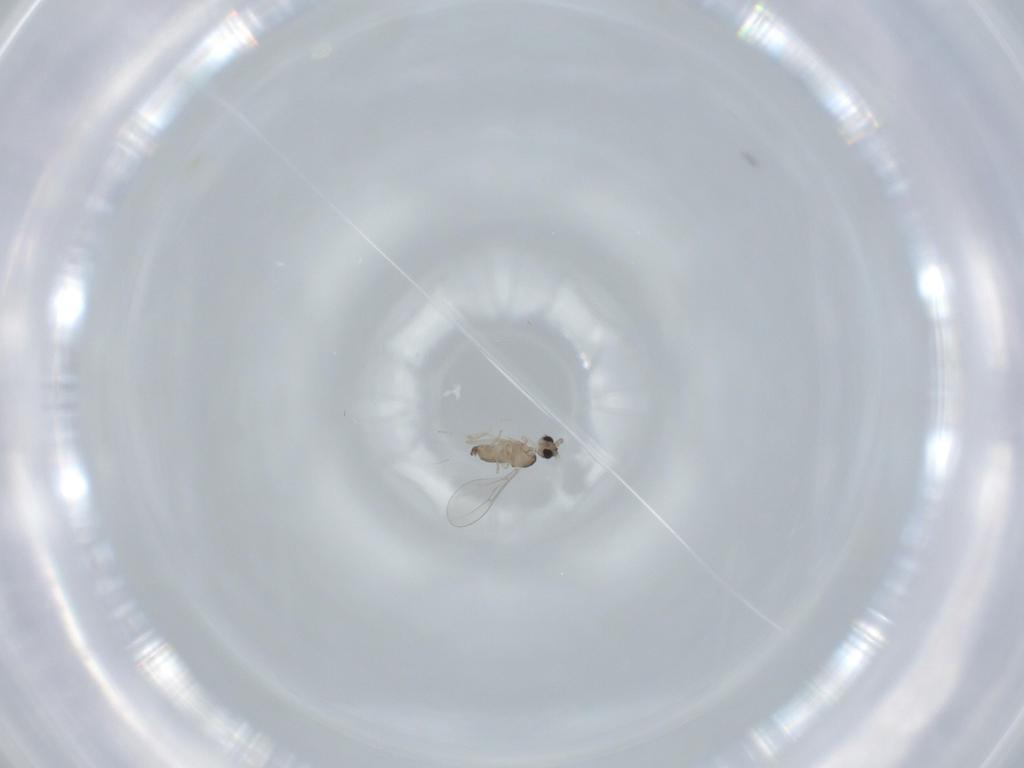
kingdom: Animalia
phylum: Arthropoda
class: Insecta
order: Diptera
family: Cecidomyiidae
